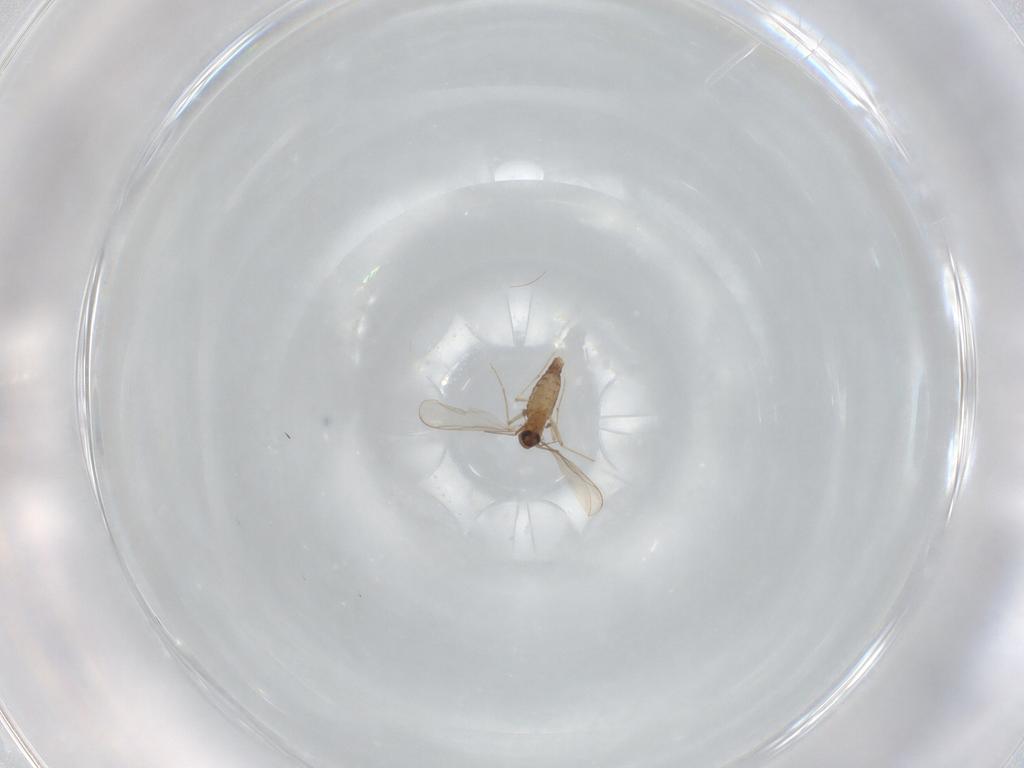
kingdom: Animalia
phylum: Arthropoda
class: Insecta
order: Diptera
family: Chironomidae
